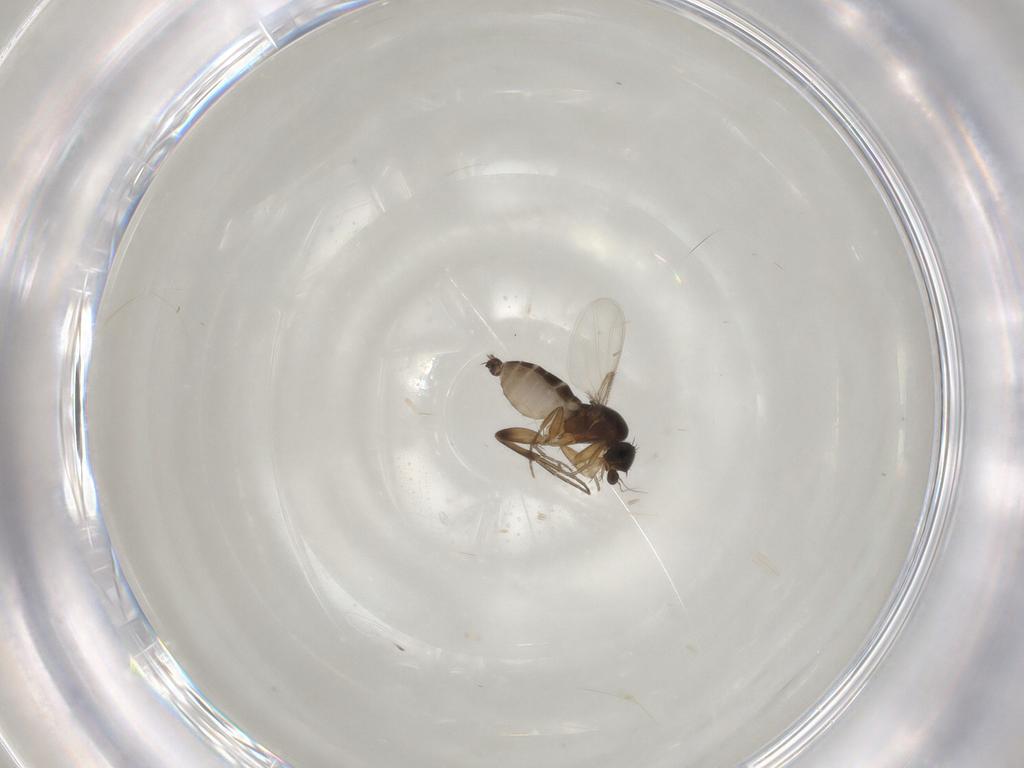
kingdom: Animalia
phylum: Arthropoda
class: Insecta
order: Diptera
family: Phoridae
